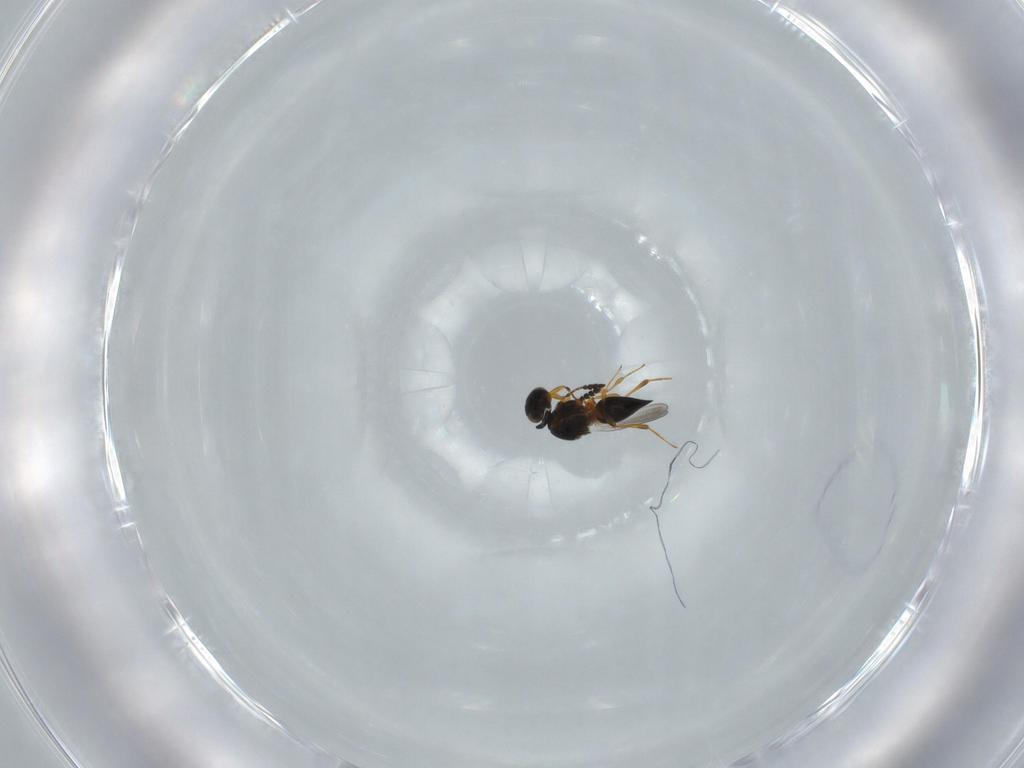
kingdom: Animalia
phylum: Arthropoda
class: Insecta
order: Hymenoptera
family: Platygastridae
